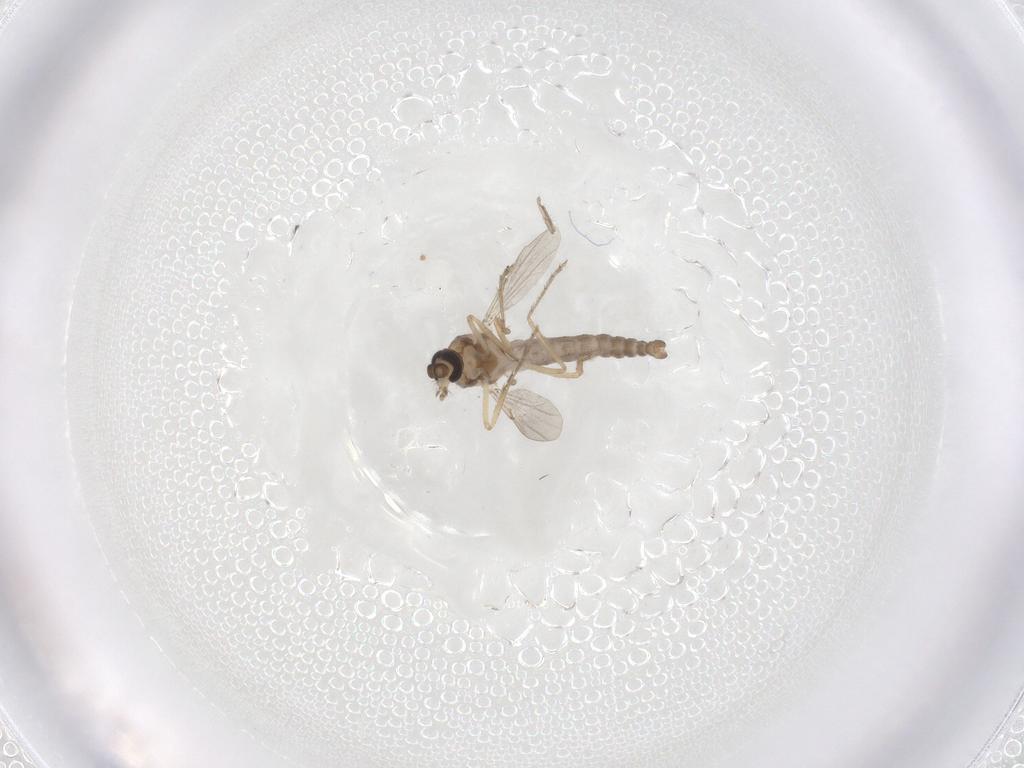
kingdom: Animalia
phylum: Arthropoda
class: Insecta
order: Diptera
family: Ceratopogonidae
